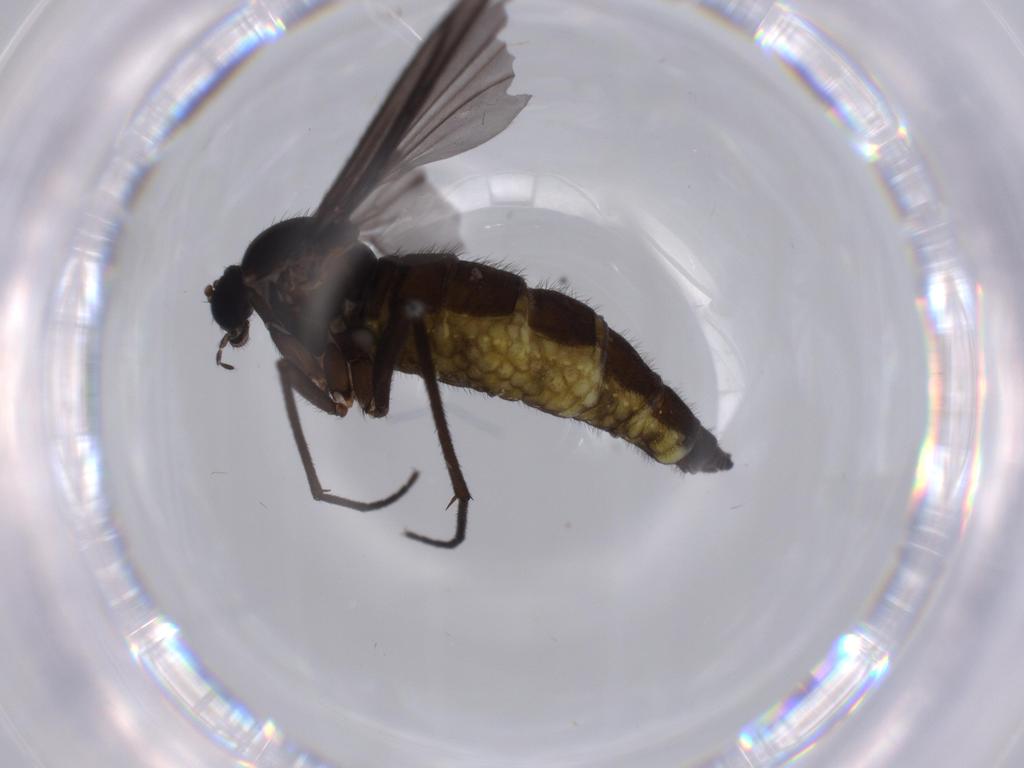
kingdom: Animalia
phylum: Arthropoda
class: Insecta
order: Diptera
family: Sciaridae
